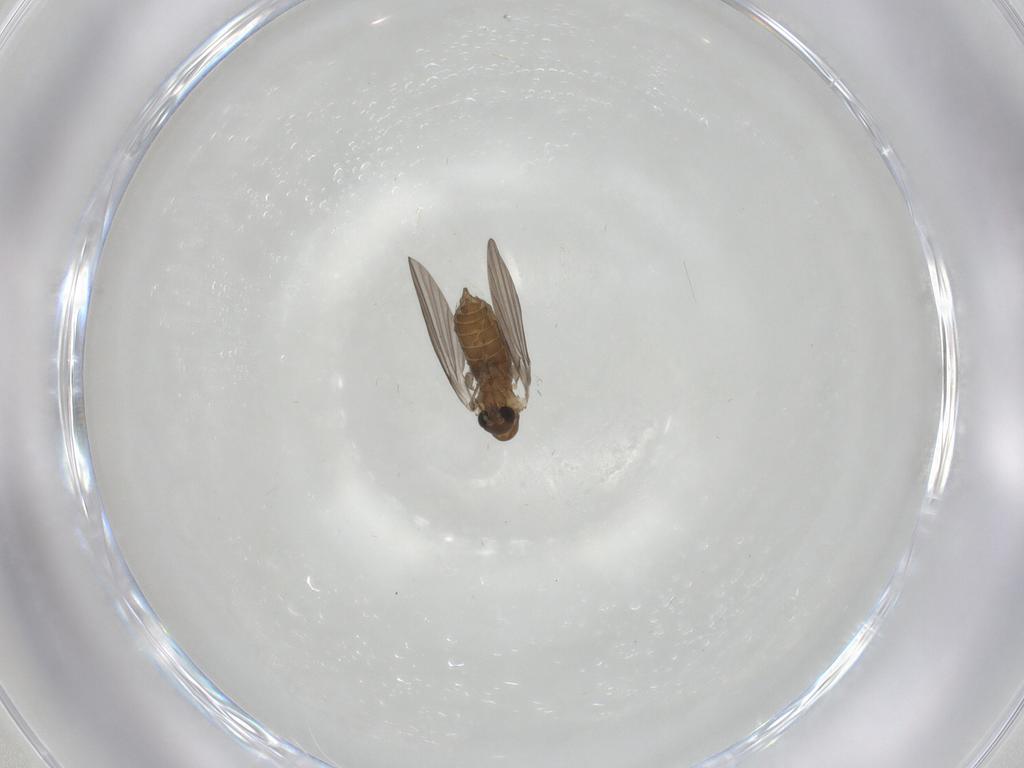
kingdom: Animalia
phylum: Arthropoda
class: Insecta
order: Diptera
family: Psychodidae
